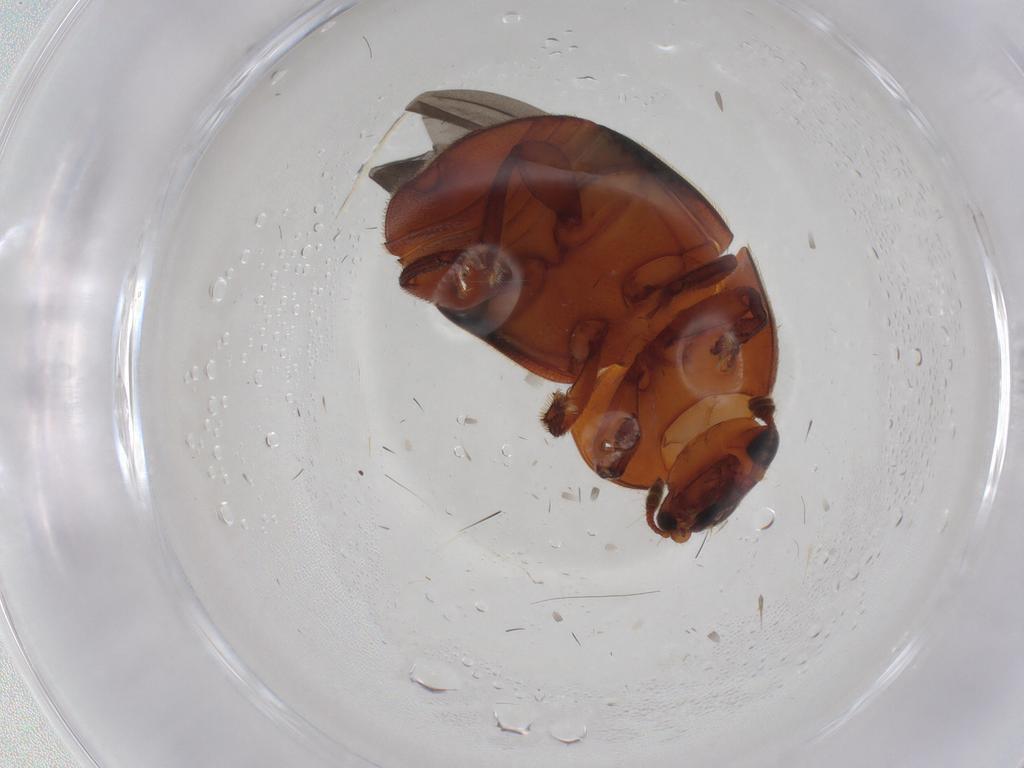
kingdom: Animalia
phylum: Arthropoda
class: Insecta
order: Coleoptera
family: Nitidulidae
